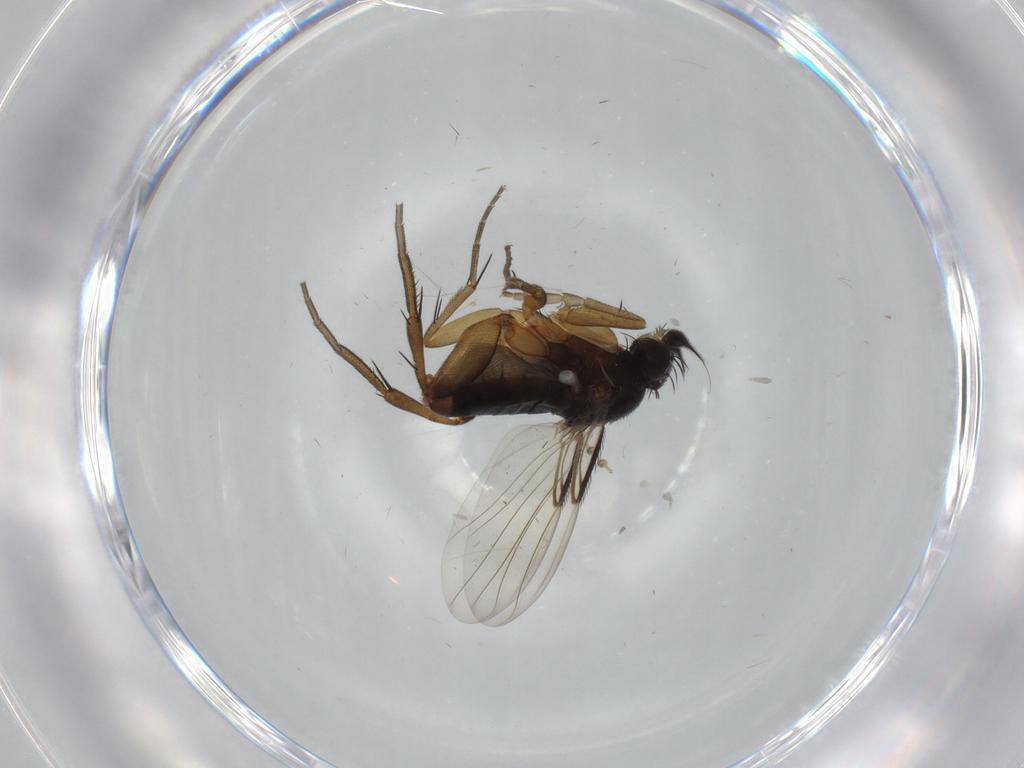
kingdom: Animalia
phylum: Arthropoda
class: Insecta
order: Diptera
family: Phoridae
